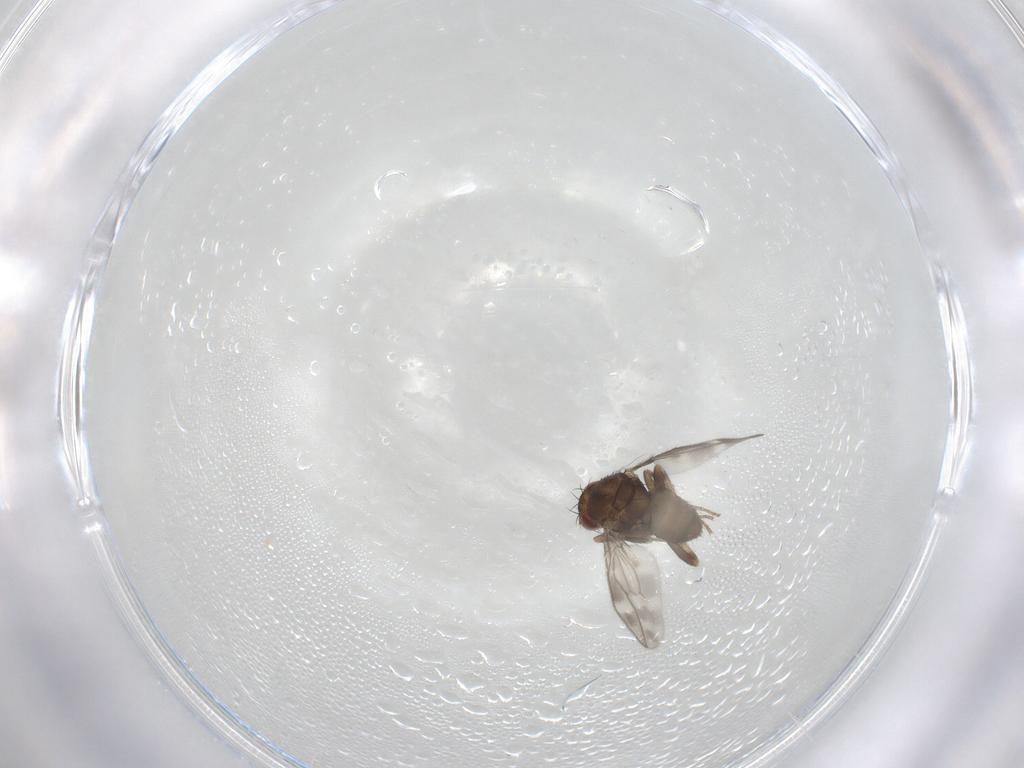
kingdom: Animalia
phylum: Arthropoda
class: Insecta
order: Diptera
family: Sphaeroceridae
